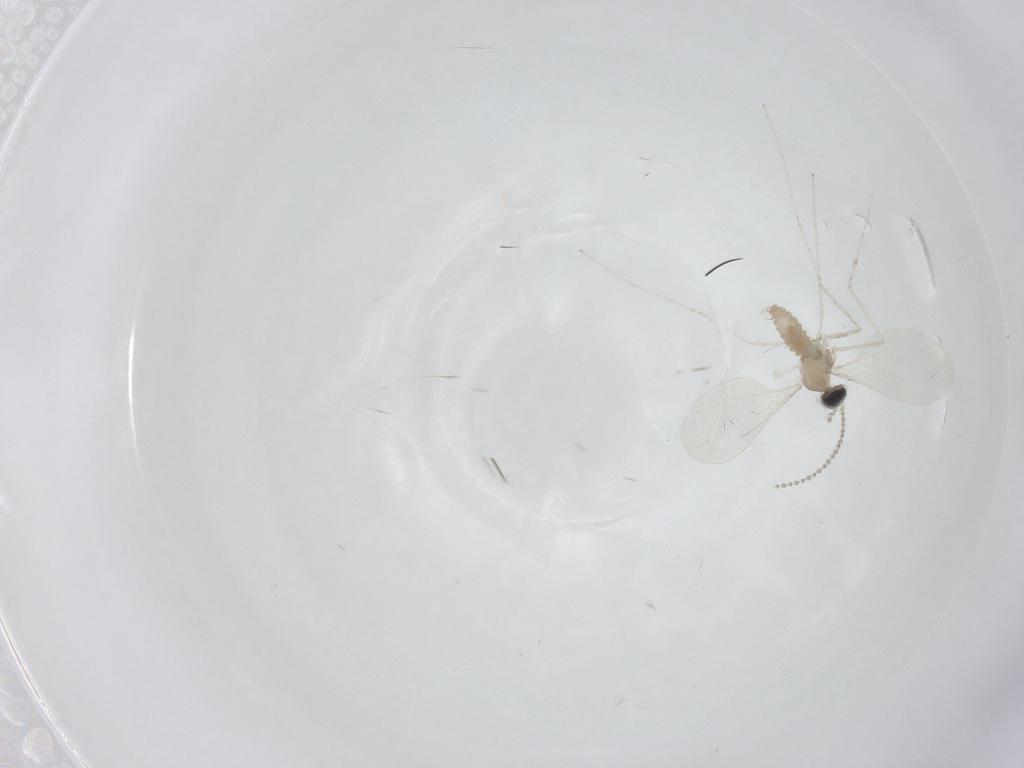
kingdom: Animalia
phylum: Arthropoda
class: Insecta
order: Diptera
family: Cecidomyiidae
